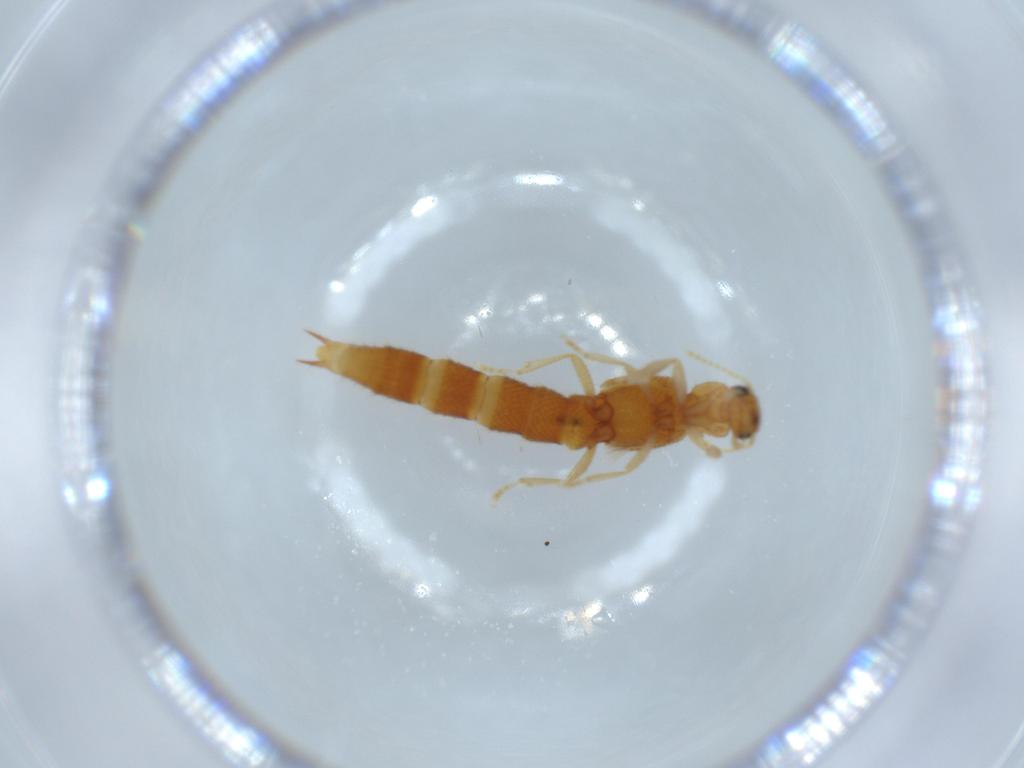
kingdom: Animalia
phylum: Arthropoda
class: Insecta
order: Coleoptera
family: Staphylinidae
